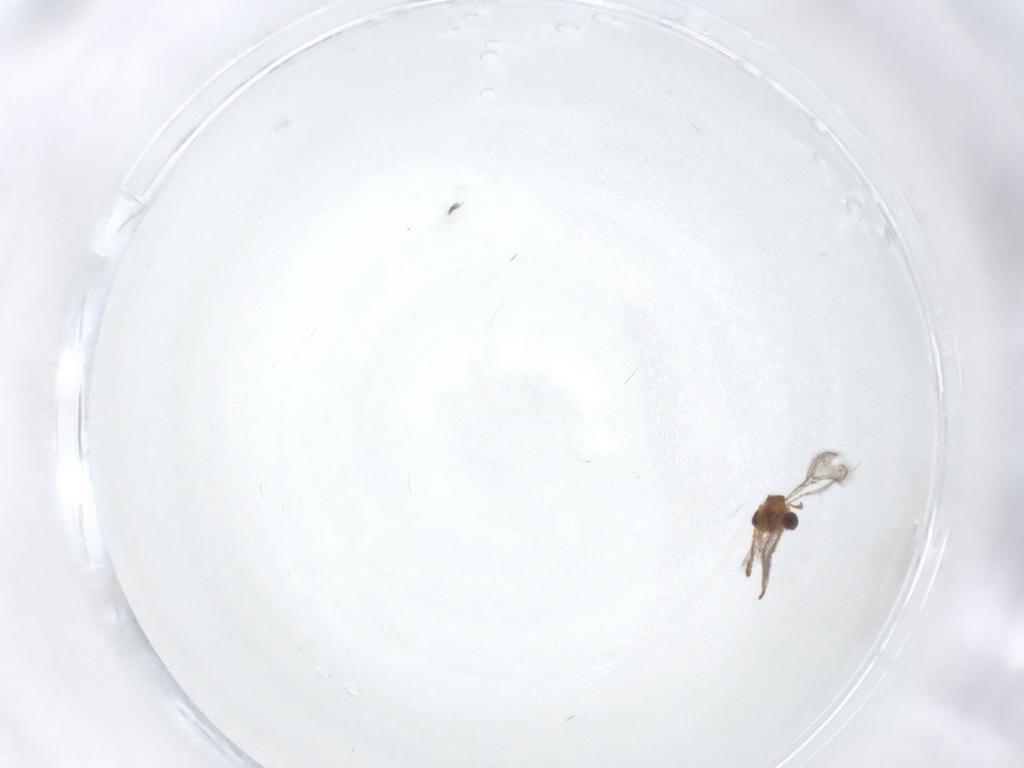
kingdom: Animalia
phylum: Arthropoda
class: Insecta
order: Hymenoptera
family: Figitidae
